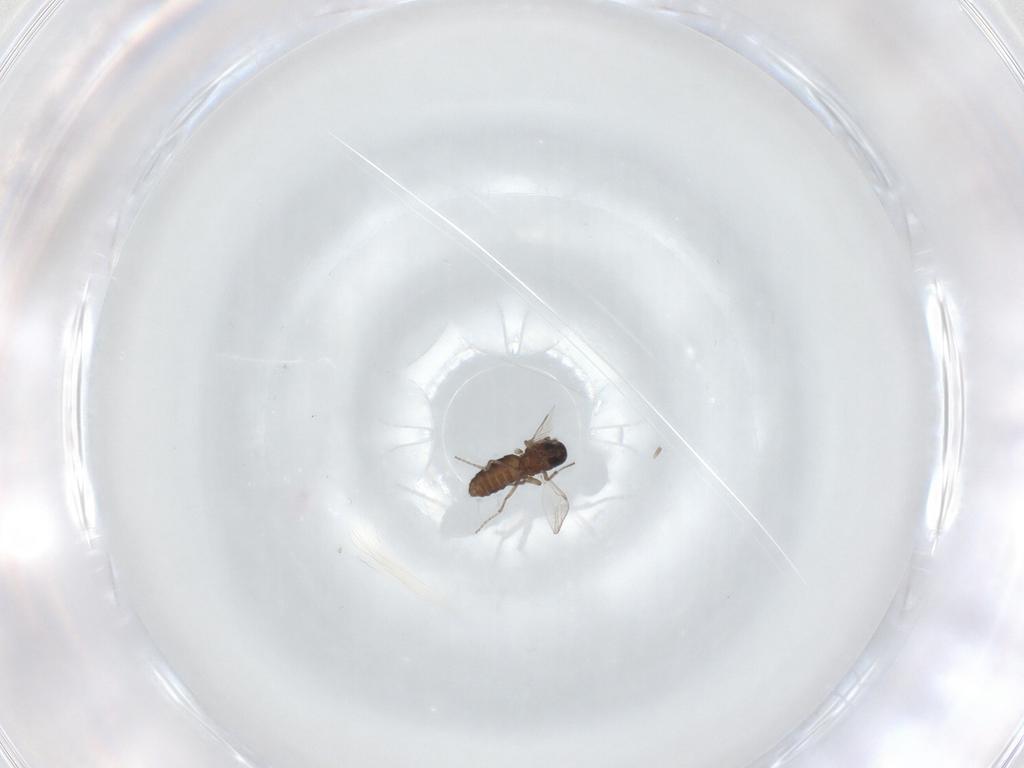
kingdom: Animalia
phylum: Arthropoda
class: Insecta
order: Diptera
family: Ceratopogonidae
